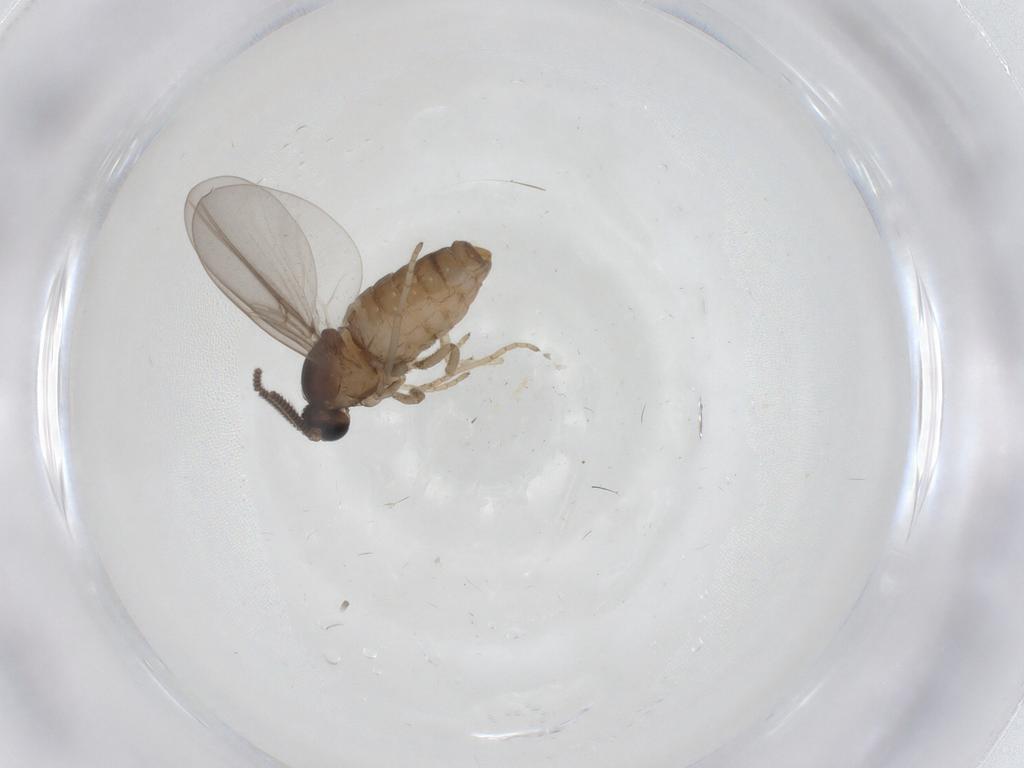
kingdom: Animalia
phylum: Arthropoda
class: Insecta
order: Diptera
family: Cecidomyiidae
